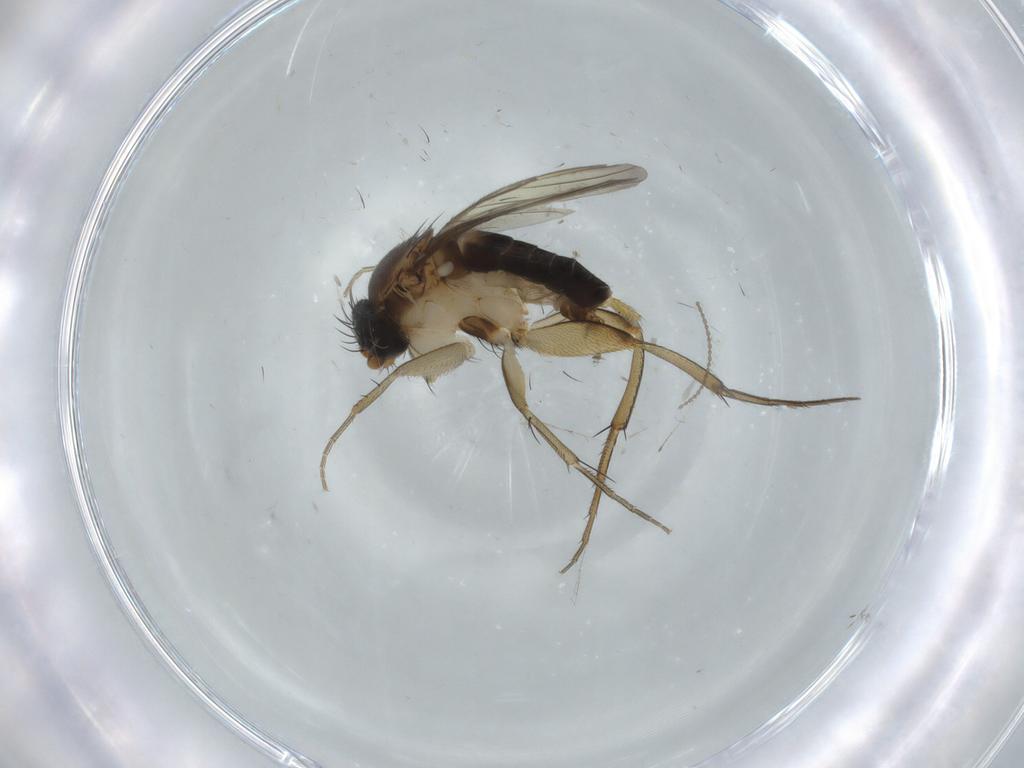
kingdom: Animalia
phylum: Arthropoda
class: Insecta
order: Diptera
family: Phoridae
